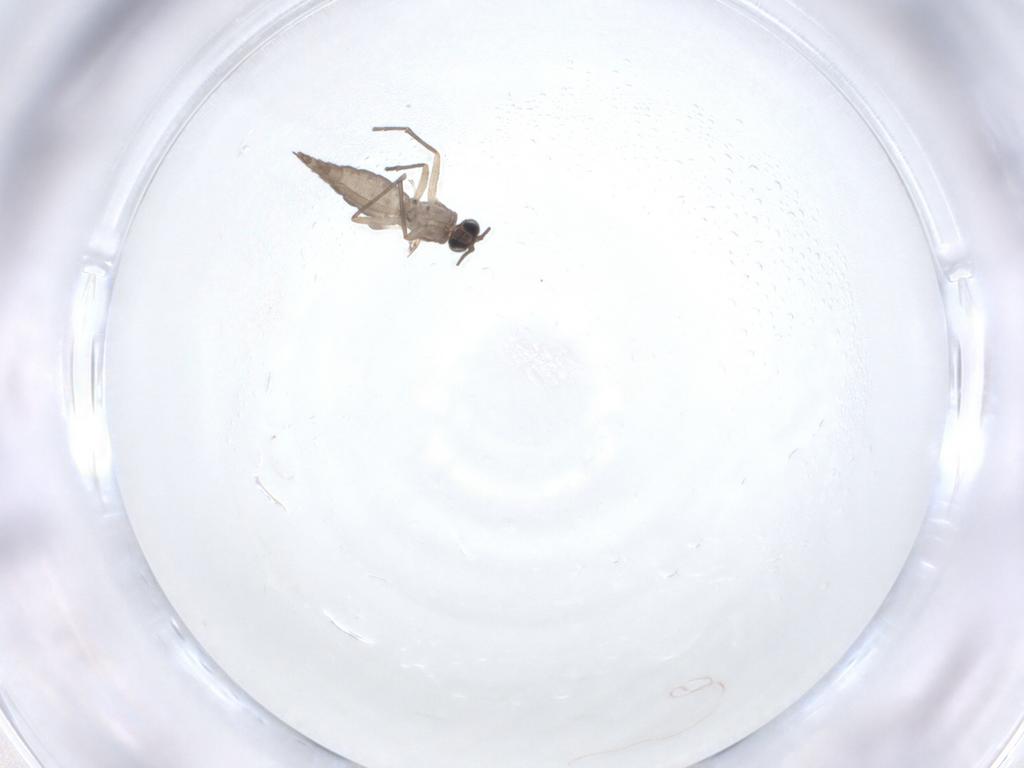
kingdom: Animalia
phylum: Arthropoda
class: Insecta
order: Diptera
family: Sciaridae
